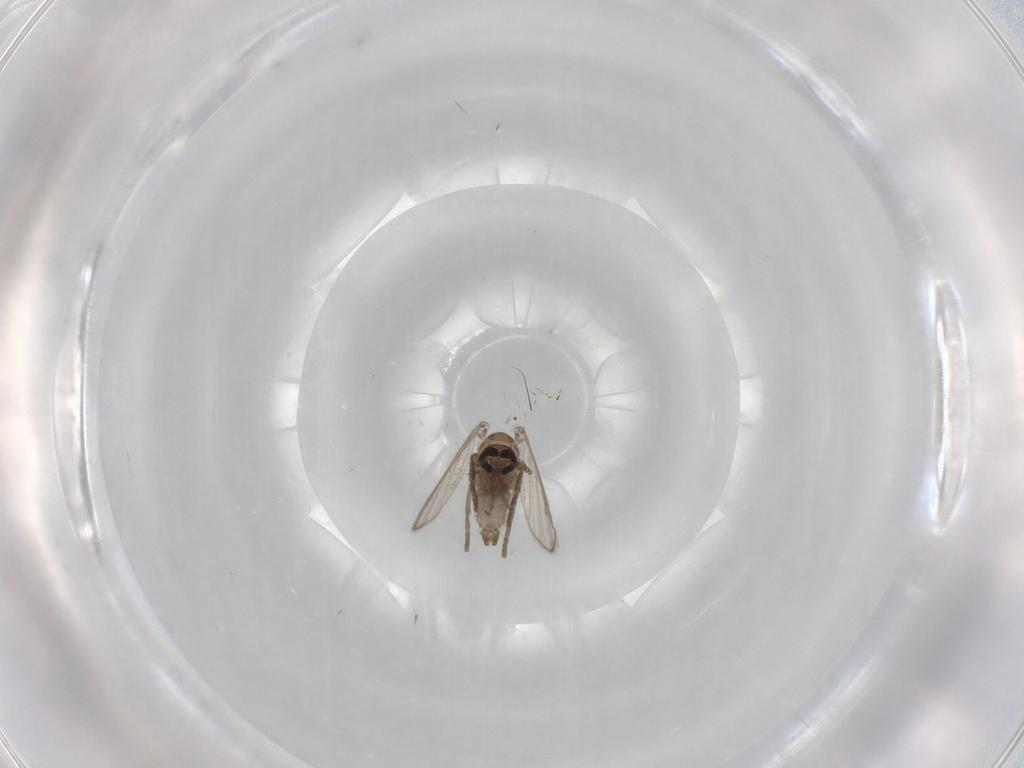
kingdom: Animalia
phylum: Arthropoda
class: Insecta
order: Diptera
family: Psychodidae
